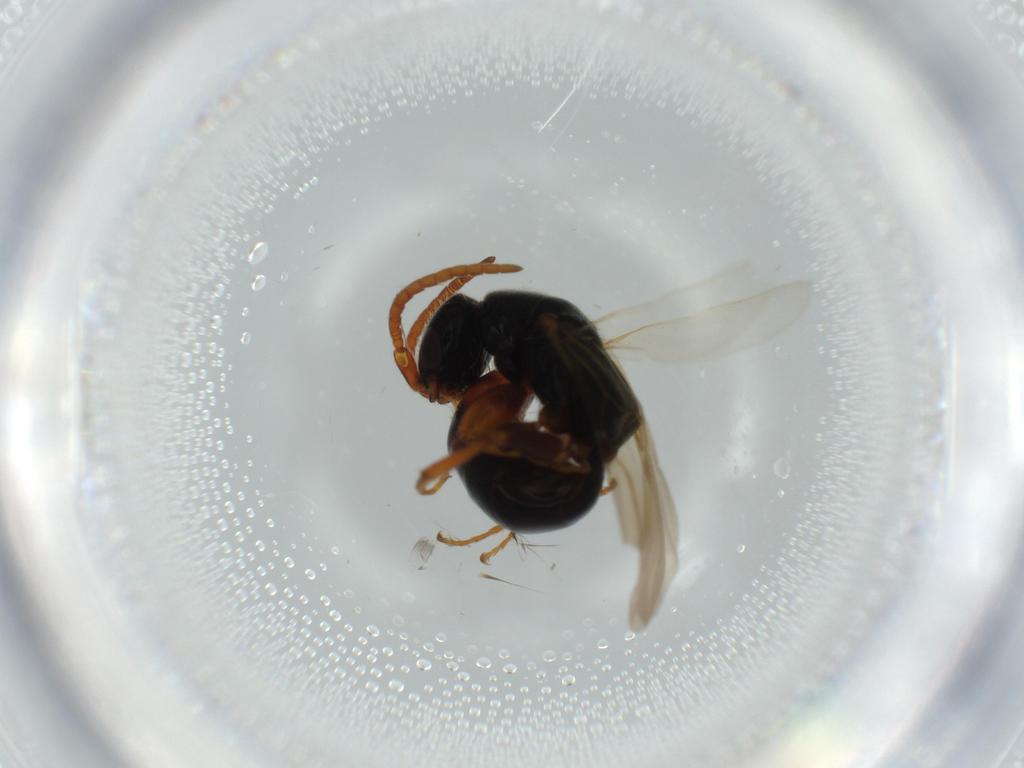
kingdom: Animalia
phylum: Arthropoda
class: Insecta
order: Hymenoptera
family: Bethylidae
